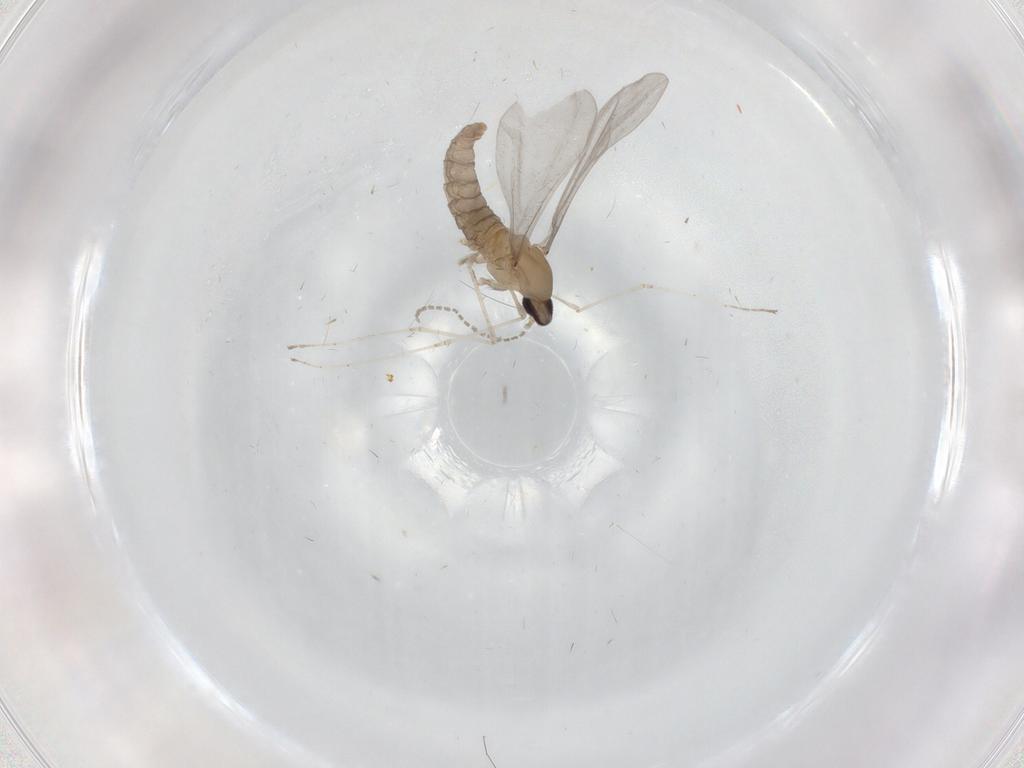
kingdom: Animalia
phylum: Arthropoda
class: Insecta
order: Diptera
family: Cecidomyiidae
